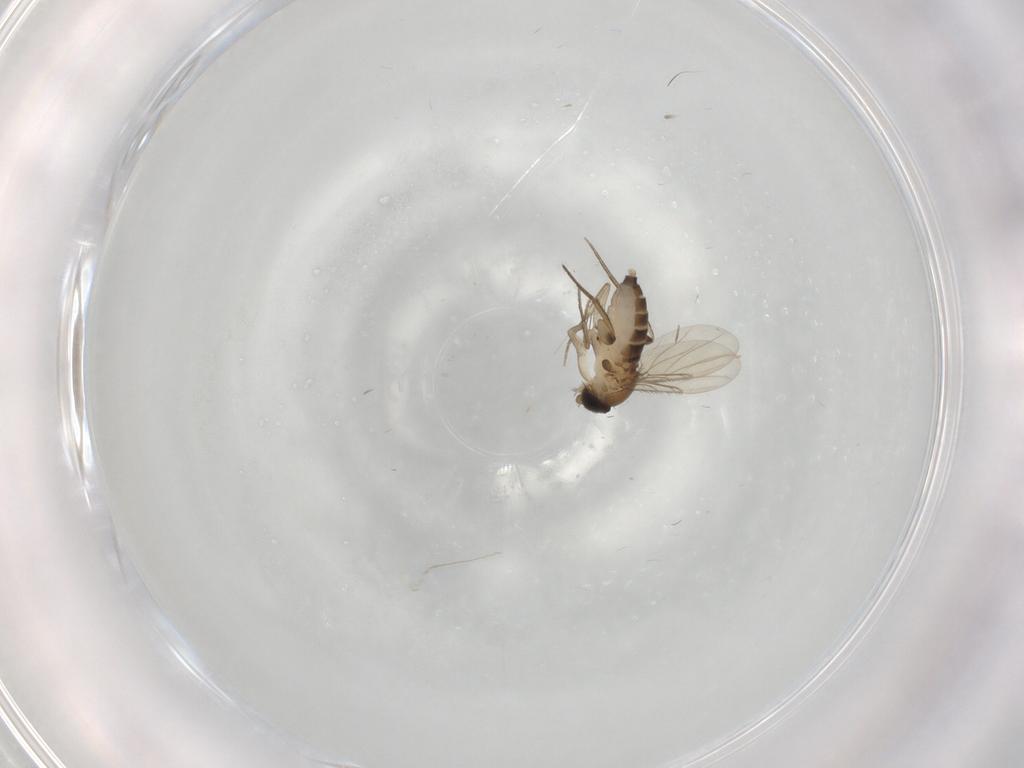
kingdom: Animalia
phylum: Arthropoda
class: Insecta
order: Diptera
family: Phoridae
